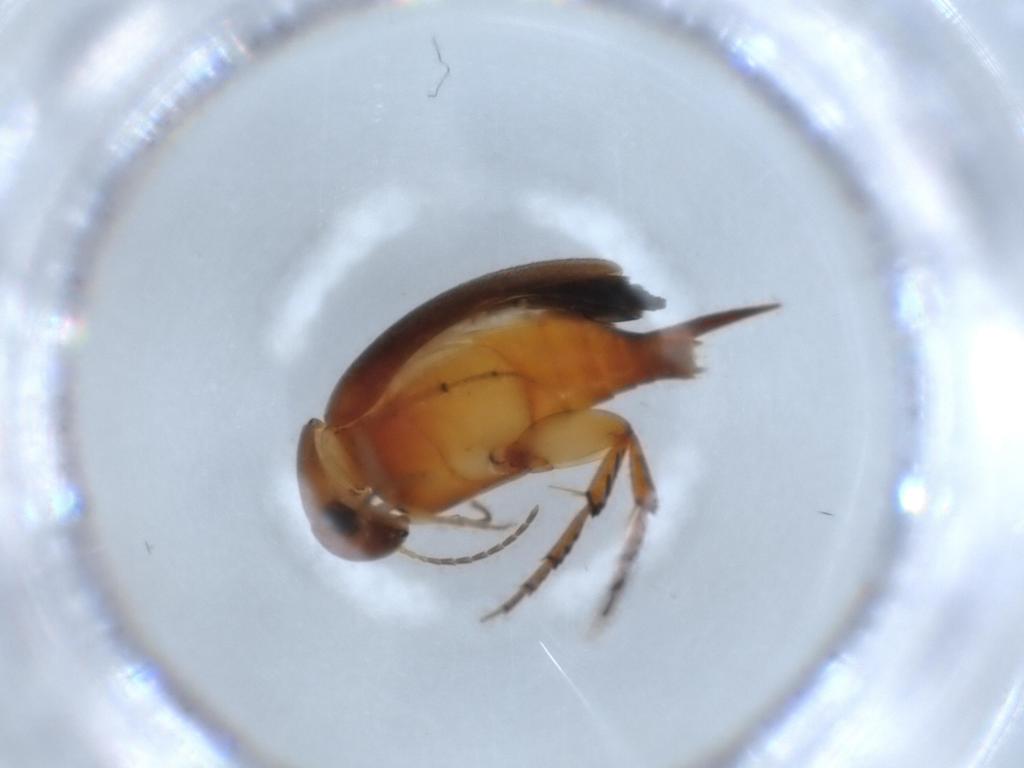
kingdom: Animalia
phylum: Arthropoda
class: Insecta
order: Coleoptera
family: Mordellidae
